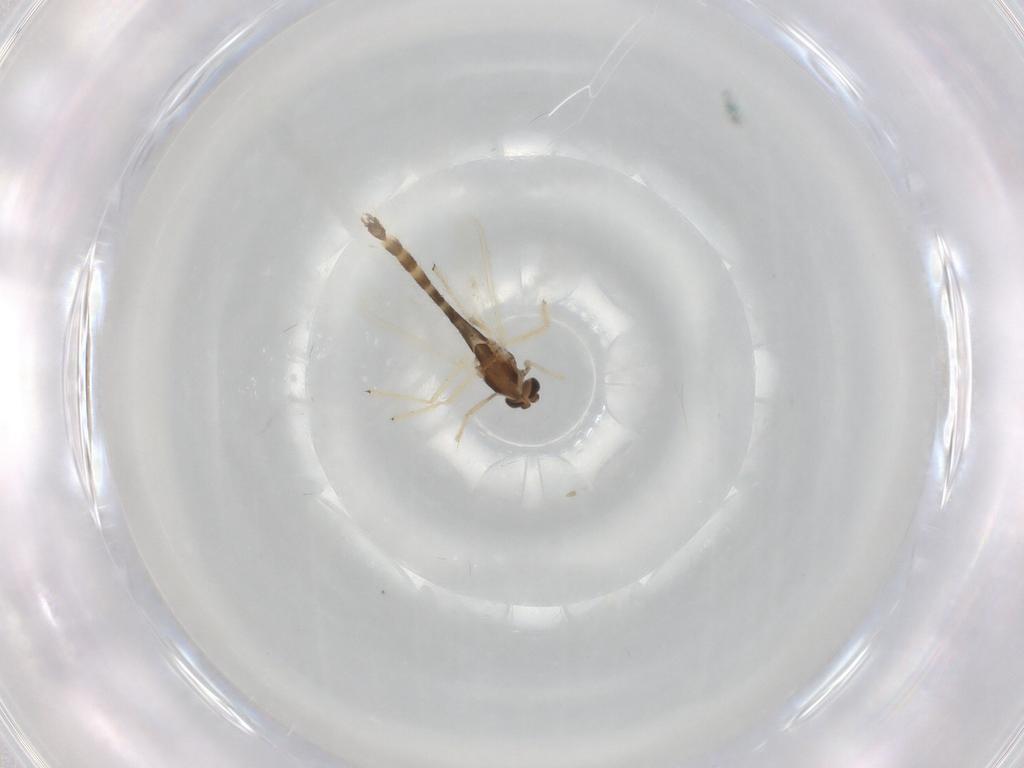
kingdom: Animalia
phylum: Arthropoda
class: Insecta
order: Diptera
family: Chironomidae
